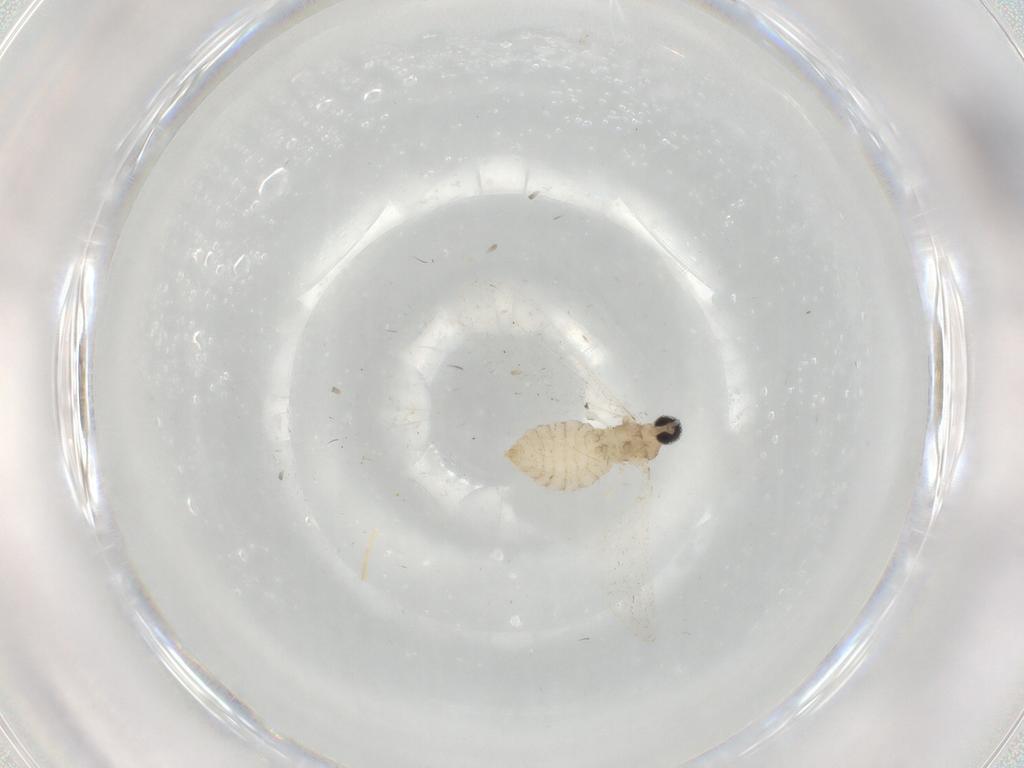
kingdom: Animalia
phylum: Arthropoda
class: Insecta
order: Diptera
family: Cecidomyiidae
